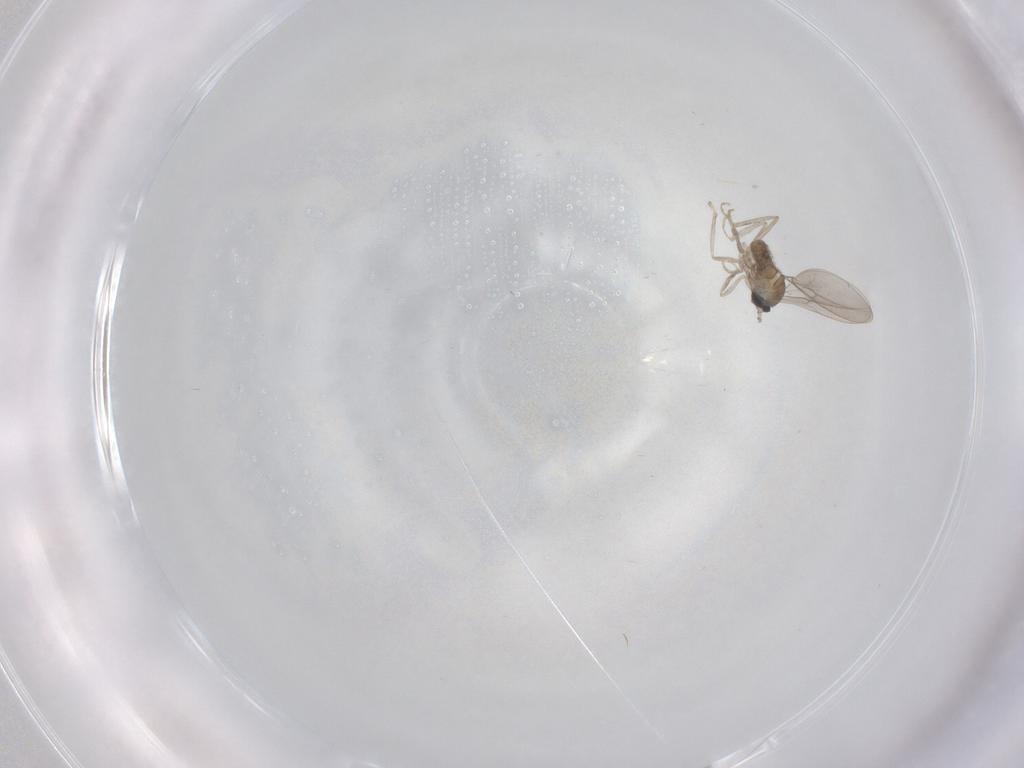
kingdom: Animalia
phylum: Arthropoda
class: Insecta
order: Diptera
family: Cecidomyiidae
